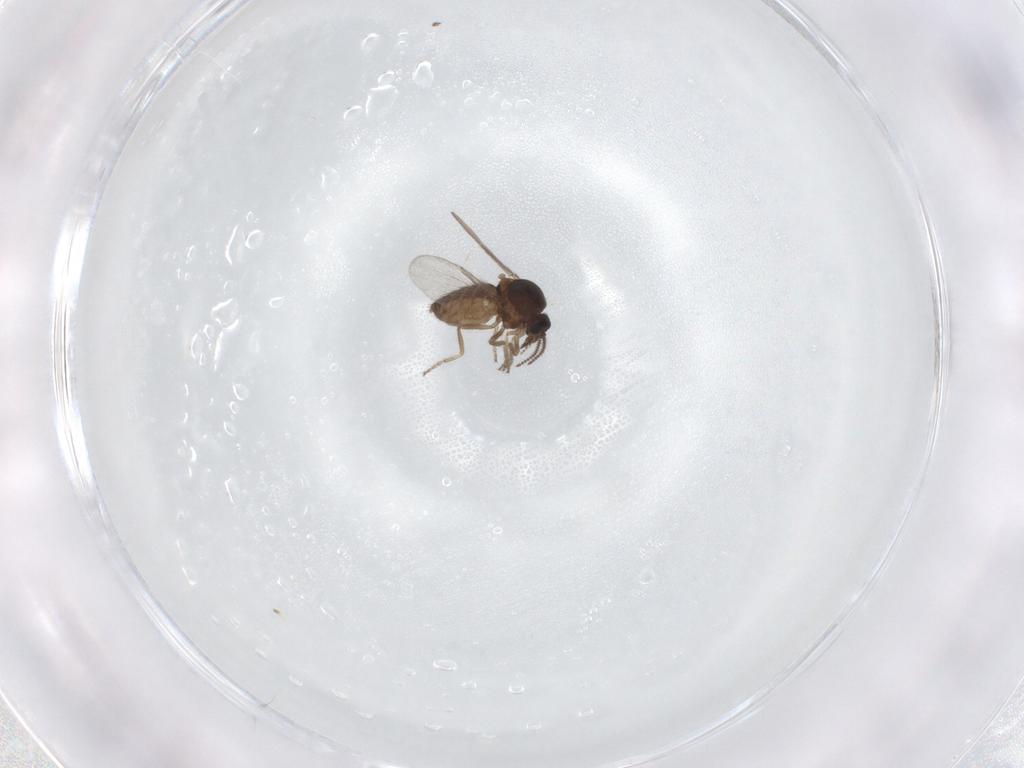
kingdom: Animalia
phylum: Arthropoda
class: Insecta
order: Diptera
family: Ceratopogonidae
